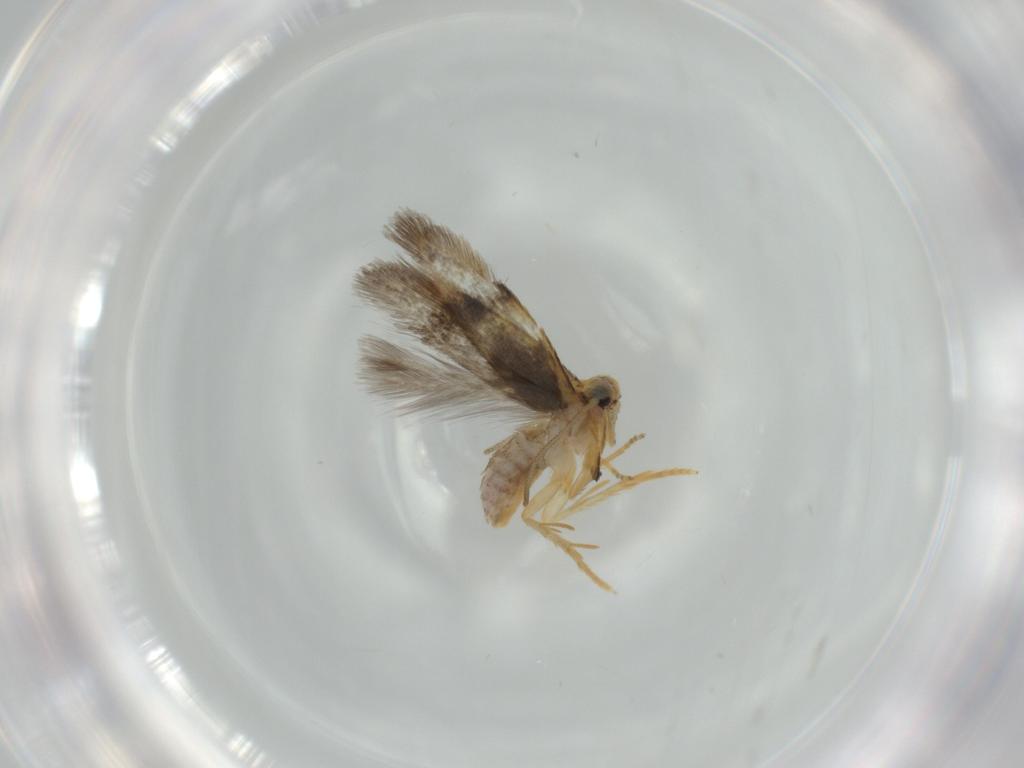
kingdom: Animalia
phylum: Arthropoda
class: Insecta
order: Lepidoptera
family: Nepticulidae
